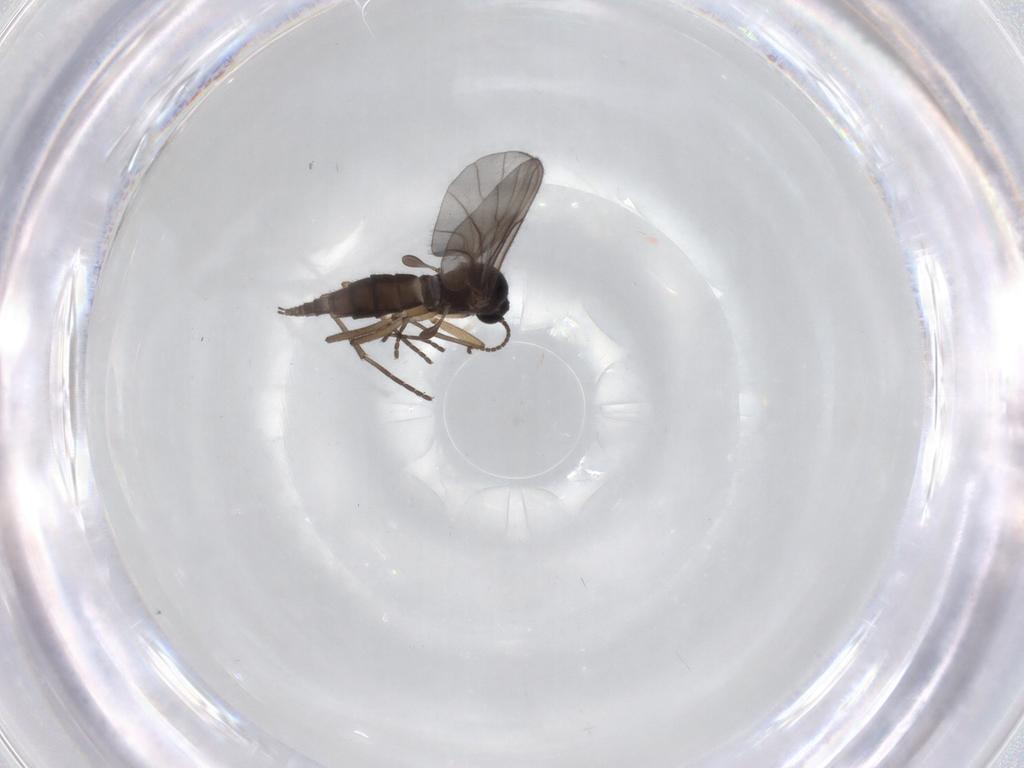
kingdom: Animalia
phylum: Arthropoda
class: Insecta
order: Diptera
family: Sciaridae
